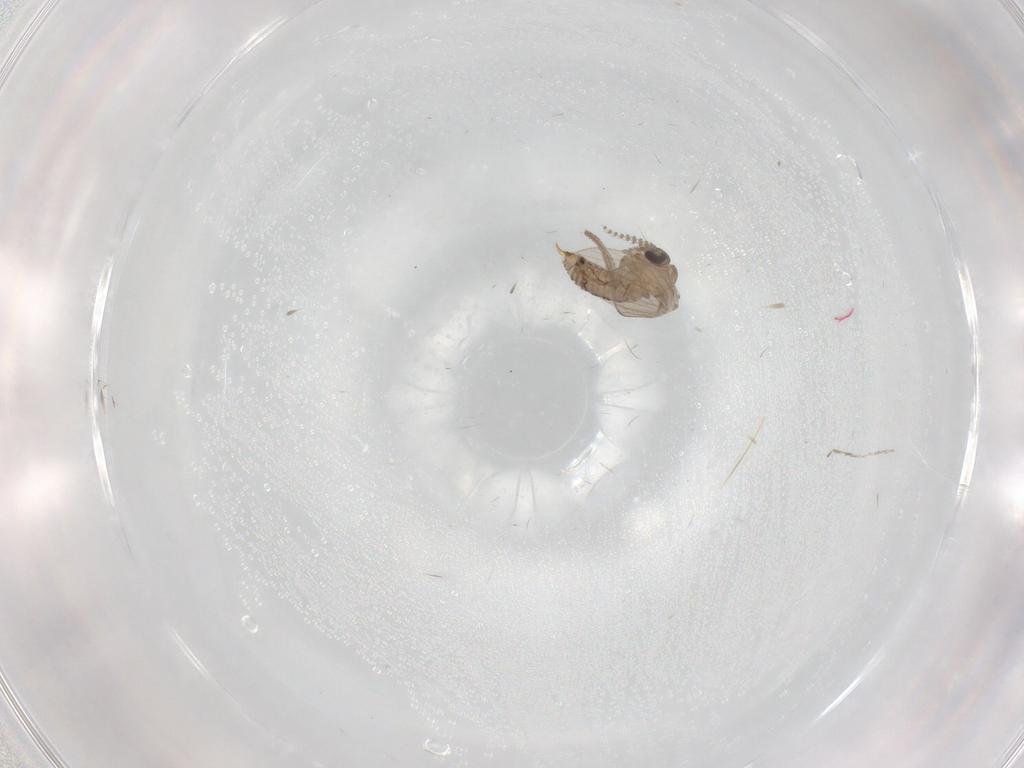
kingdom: Animalia
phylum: Arthropoda
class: Insecta
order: Diptera
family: Psychodidae
